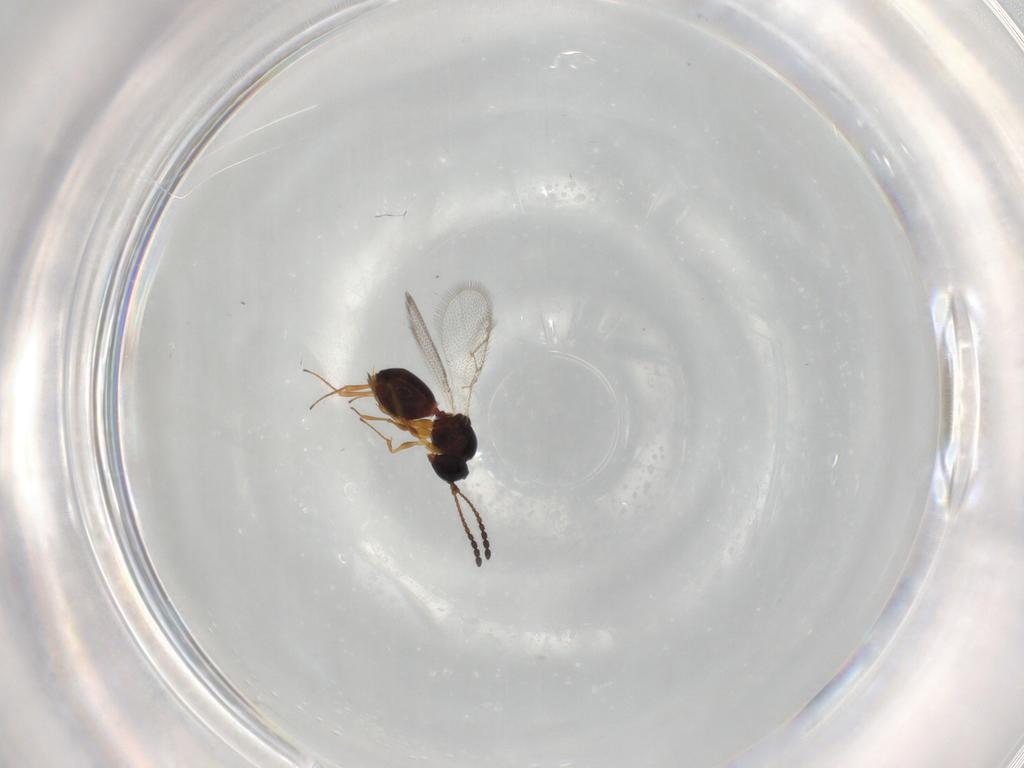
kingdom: Animalia
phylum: Arthropoda
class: Insecta
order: Hymenoptera
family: Figitidae
